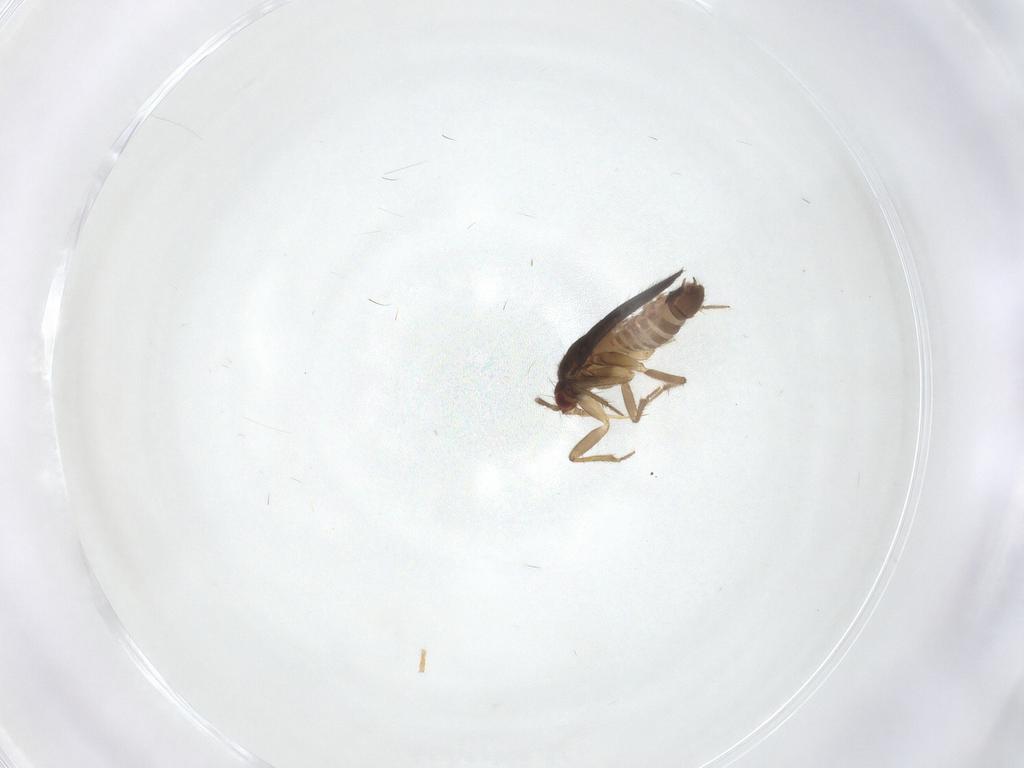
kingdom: Animalia
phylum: Arthropoda
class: Insecta
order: Hemiptera
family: Ceratocombidae
